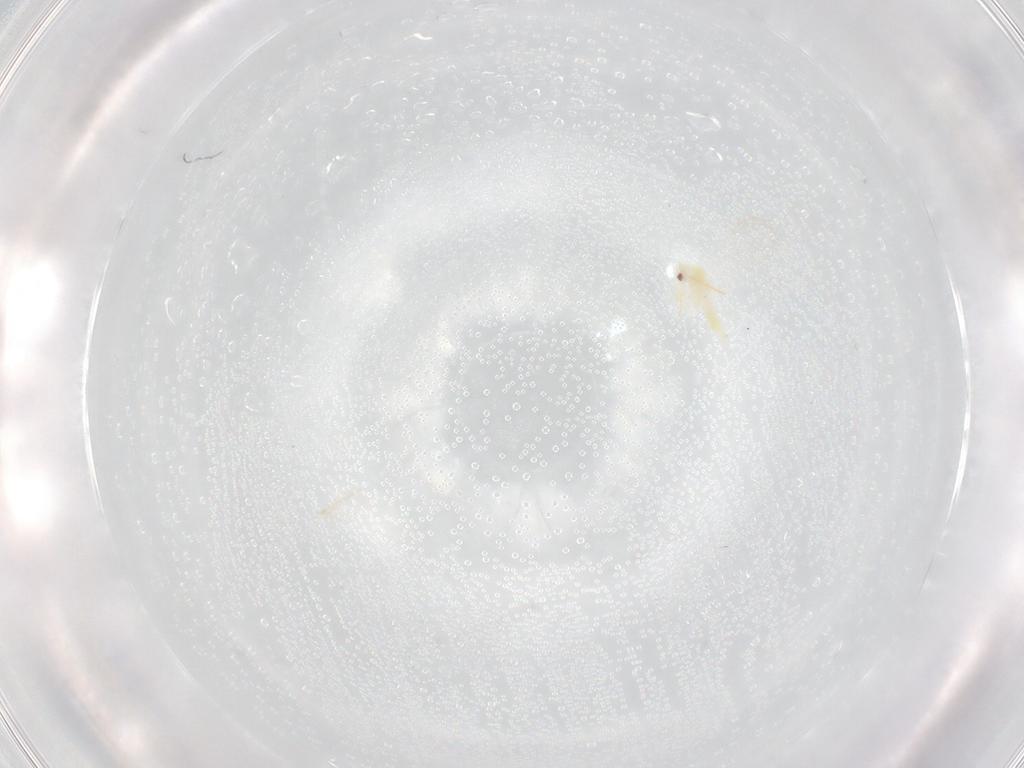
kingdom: Animalia
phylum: Arthropoda
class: Insecta
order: Hemiptera
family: Aleyrodidae
